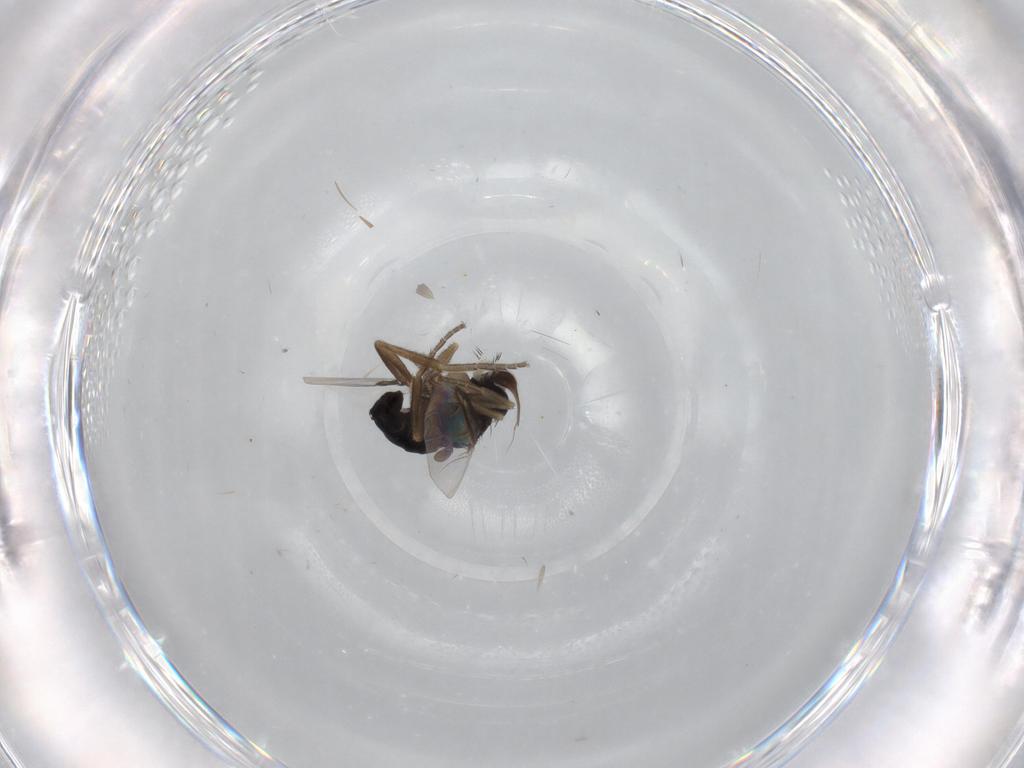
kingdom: Animalia
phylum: Arthropoda
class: Insecta
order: Diptera
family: Phoridae
